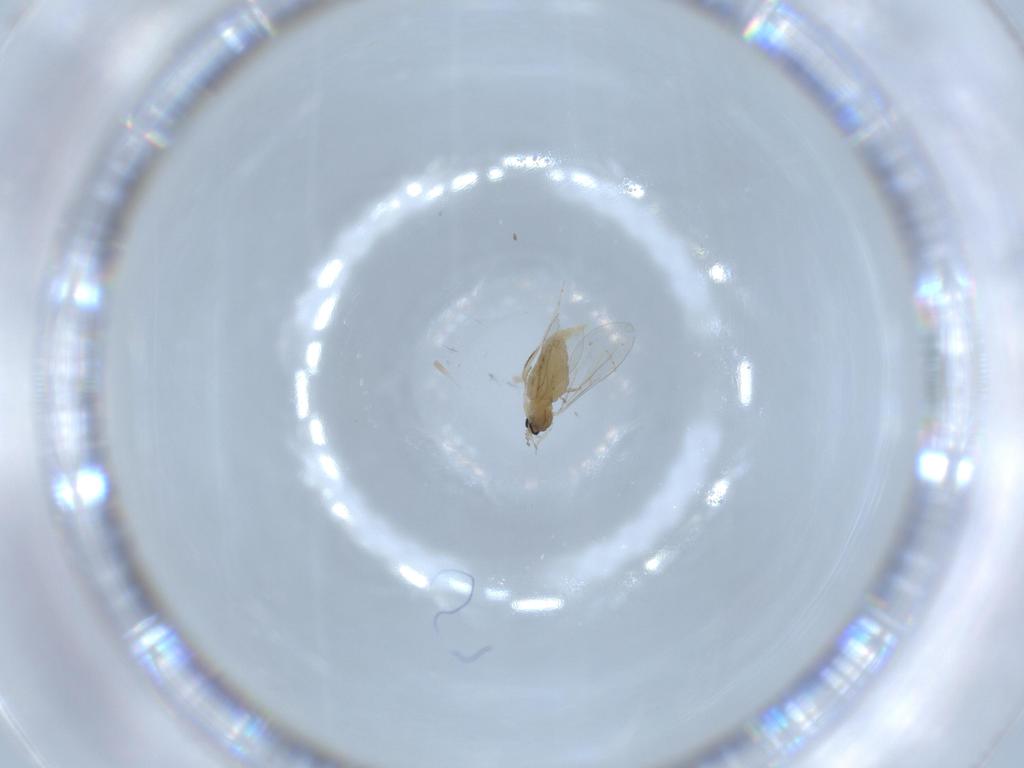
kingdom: Animalia
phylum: Arthropoda
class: Insecta
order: Diptera
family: Cecidomyiidae
